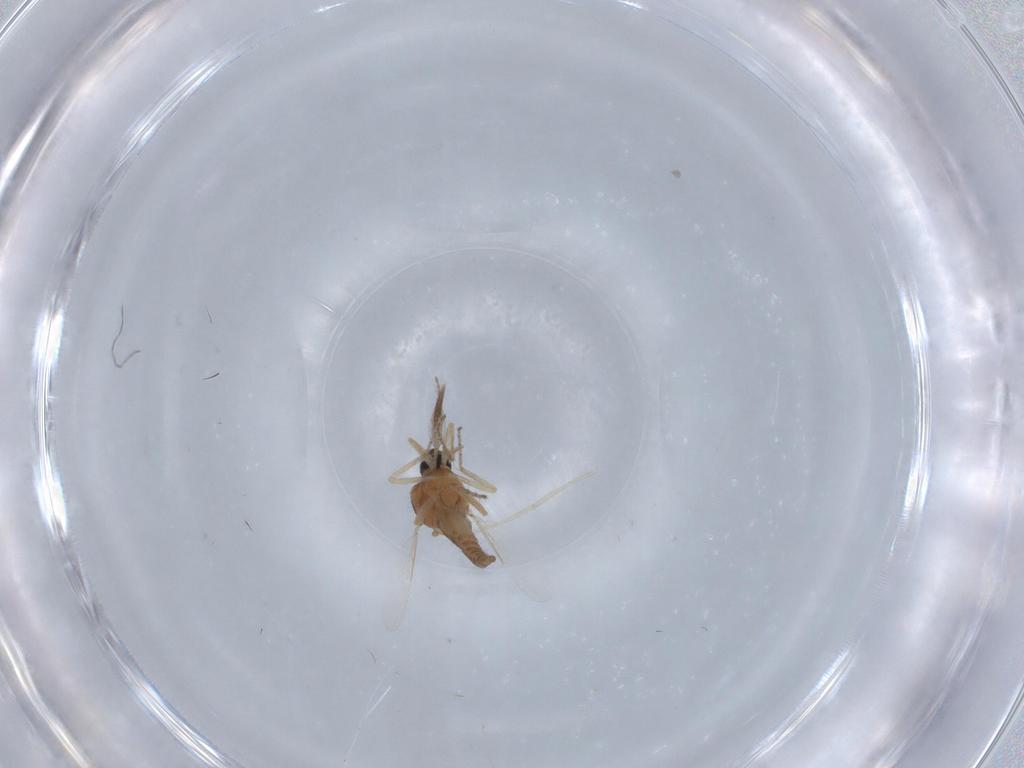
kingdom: Animalia
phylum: Arthropoda
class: Insecta
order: Diptera
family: Ceratopogonidae
